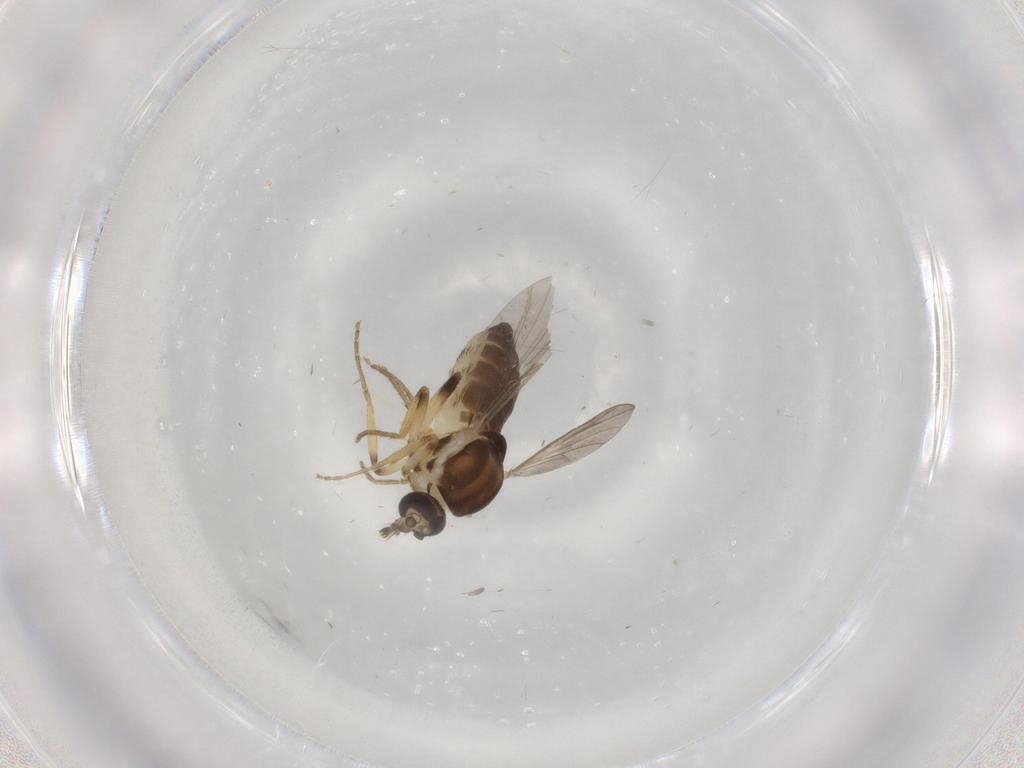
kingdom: Animalia
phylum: Arthropoda
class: Insecta
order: Diptera
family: Ceratopogonidae
